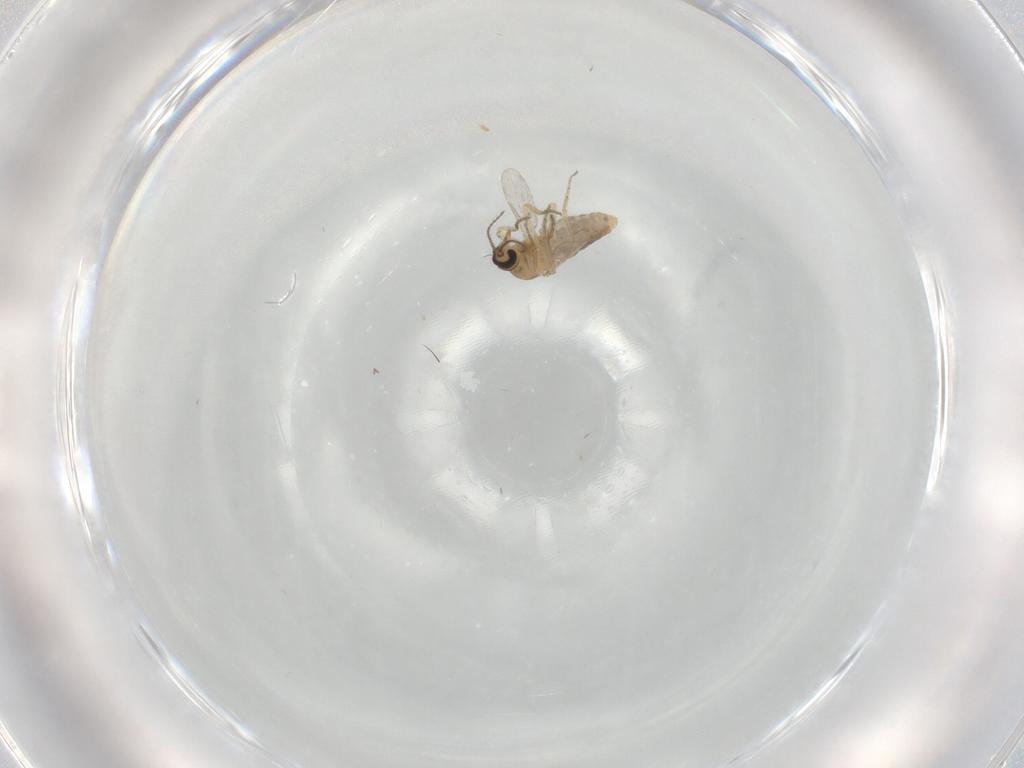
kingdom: Animalia
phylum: Arthropoda
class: Insecta
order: Diptera
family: Ceratopogonidae
